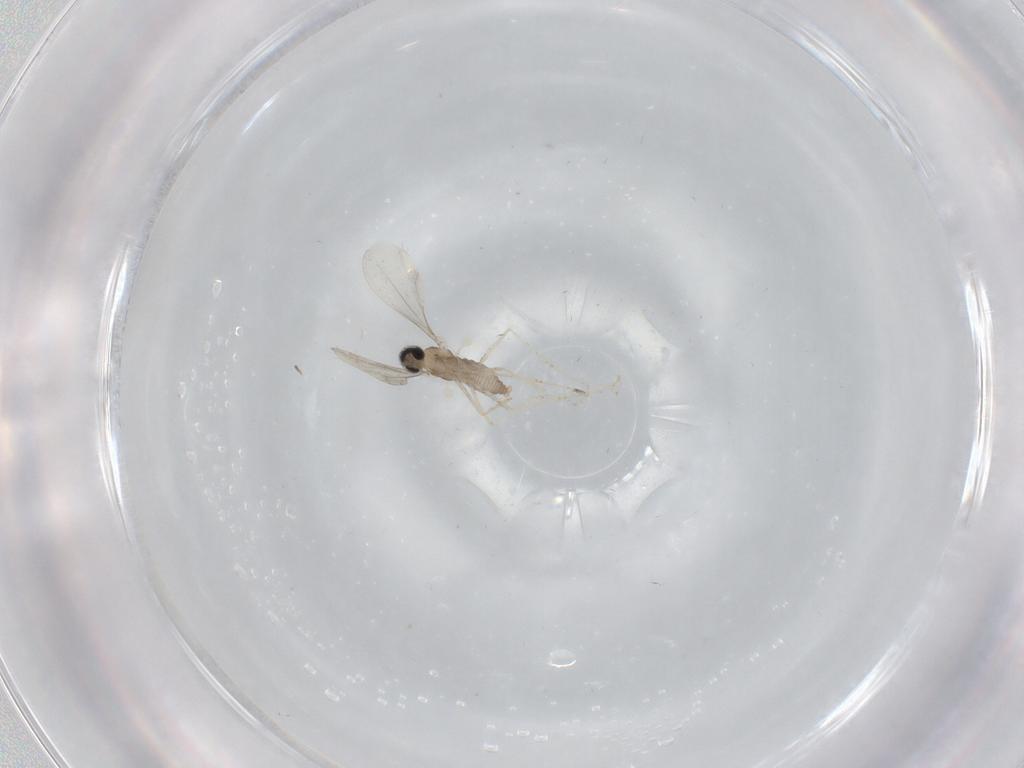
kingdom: Animalia
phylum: Arthropoda
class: Insecta
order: Diptera
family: Cecidomyiidae
